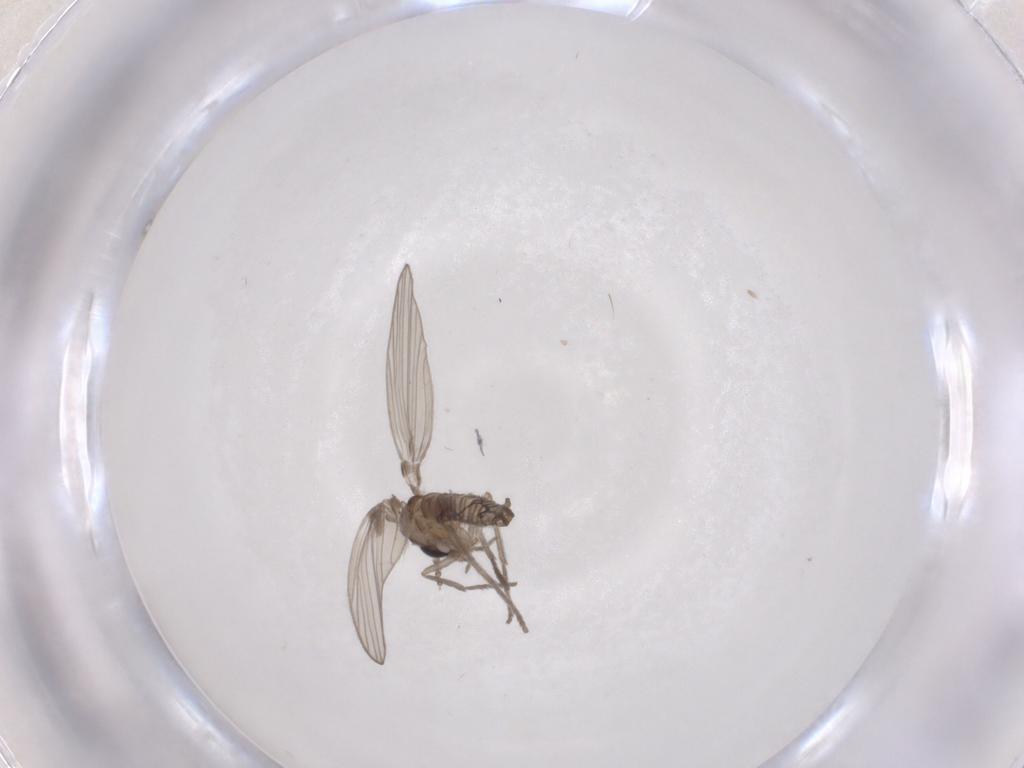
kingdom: Animalia
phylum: Arthropoda
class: Insecta
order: Diptera
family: Psychodidae
